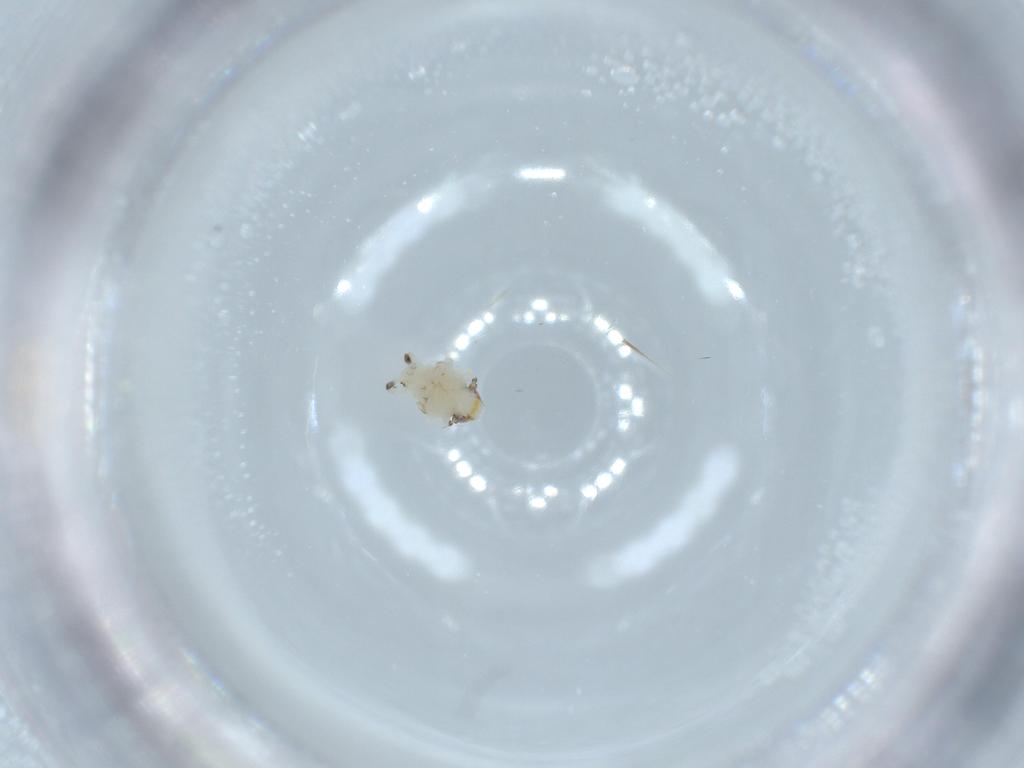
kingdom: Animalia
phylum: Arthropoda
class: Insecta
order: Hemiptera
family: Nogodinidae
